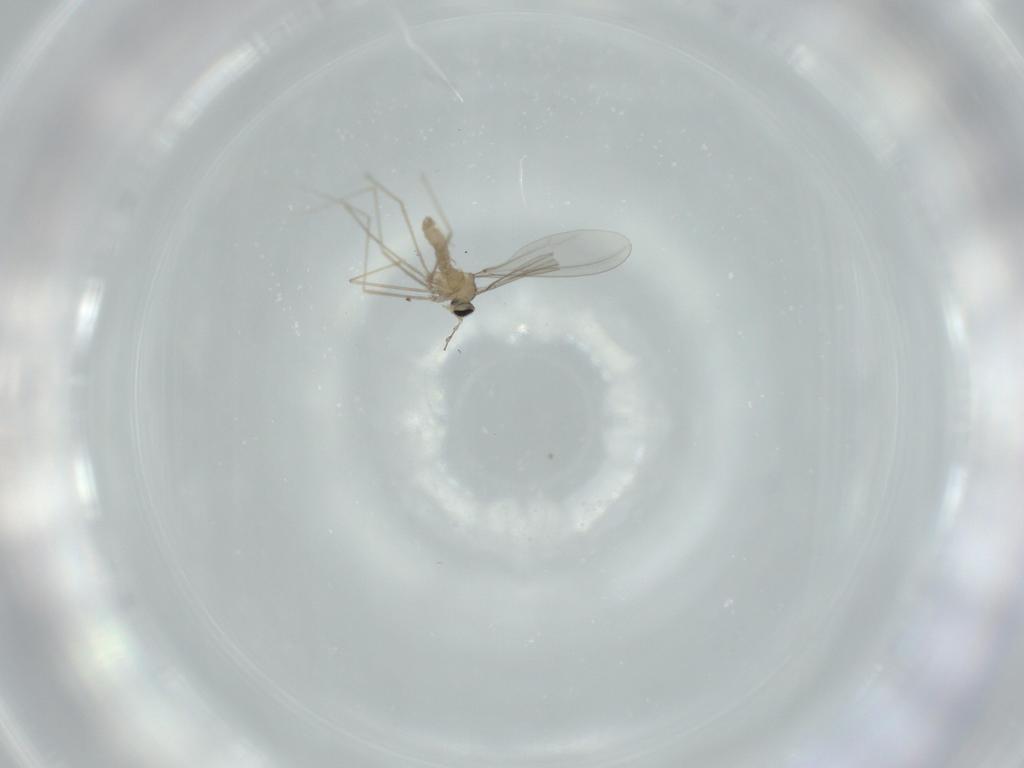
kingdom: Animalia
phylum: Arthropoda
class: Insecta
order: Diptera
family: Cecidomyiidae
